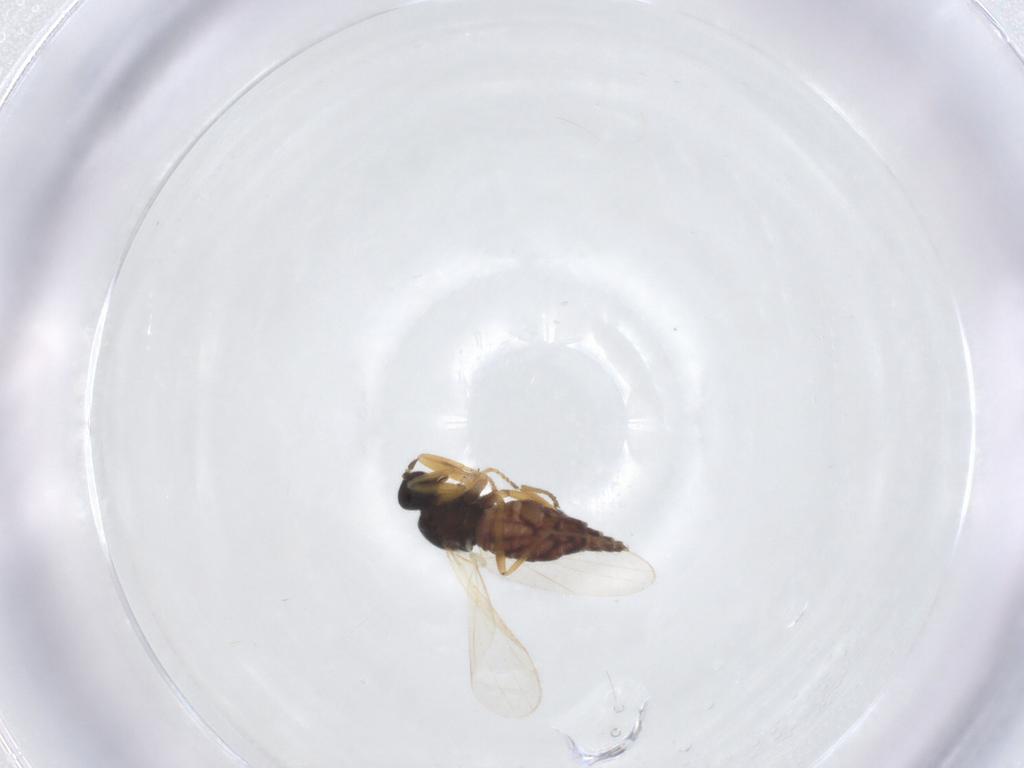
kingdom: Animalia
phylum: Arthropoda
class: Insecta
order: Diptera
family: Hybotidae
